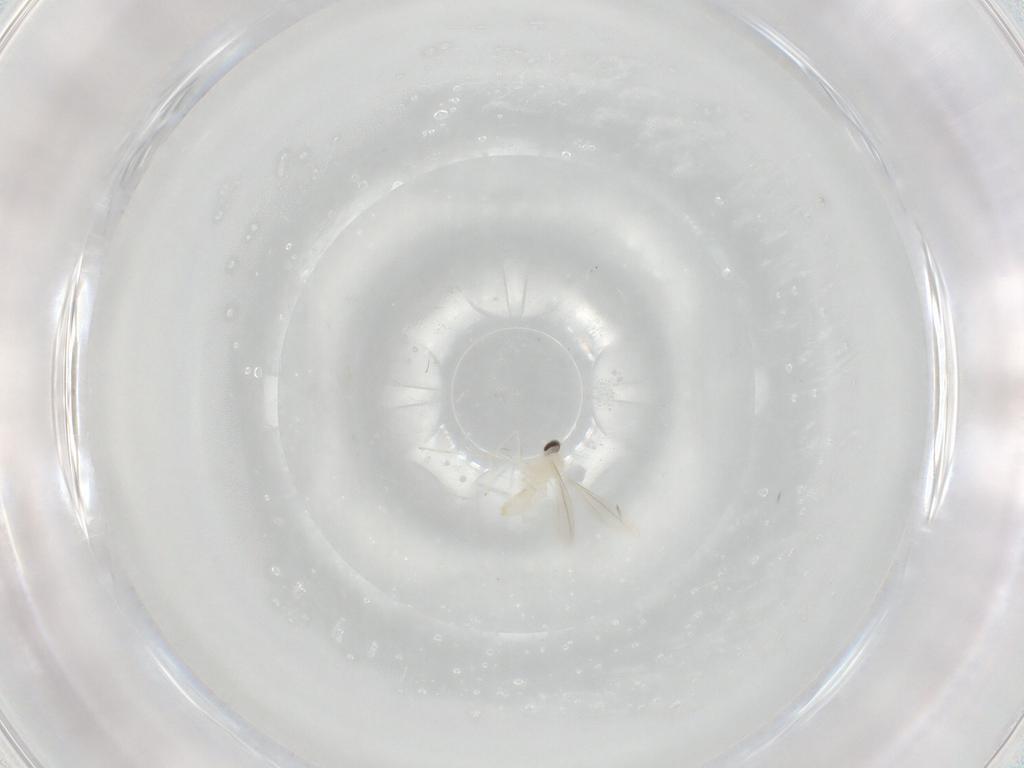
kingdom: Animalia
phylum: Arthropoda
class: Insecta
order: Diptera
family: Cecidomyiidae
